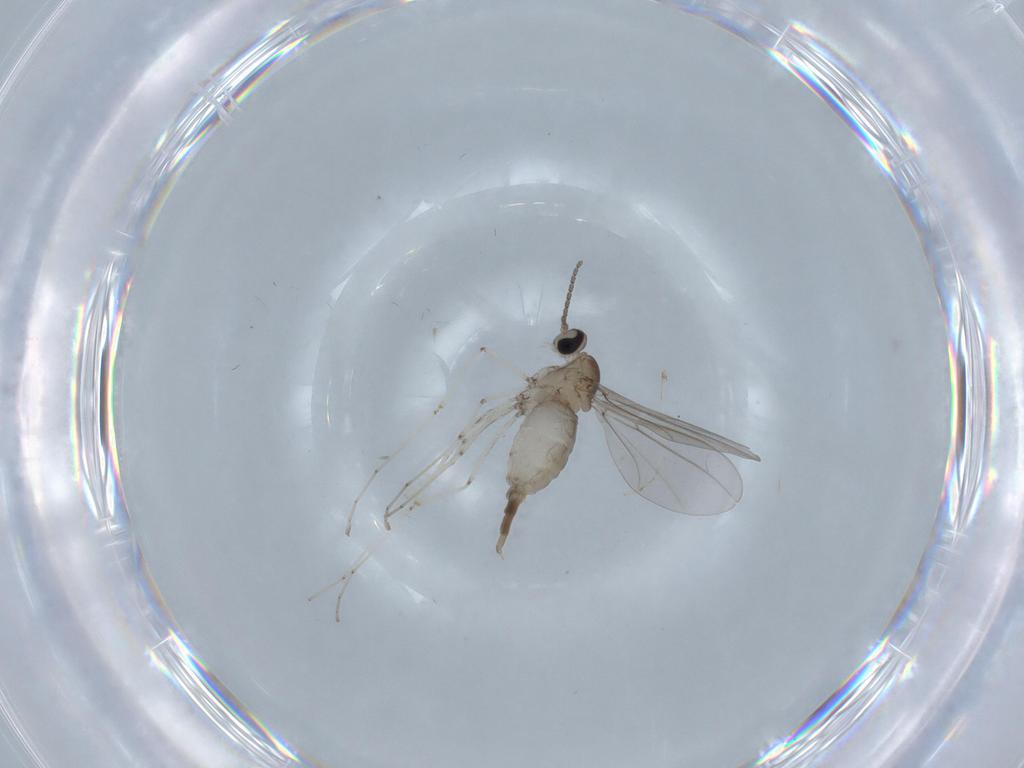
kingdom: Animalia
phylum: Arthropoda
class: Insecta
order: Diptera
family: Cecidomyiidae
